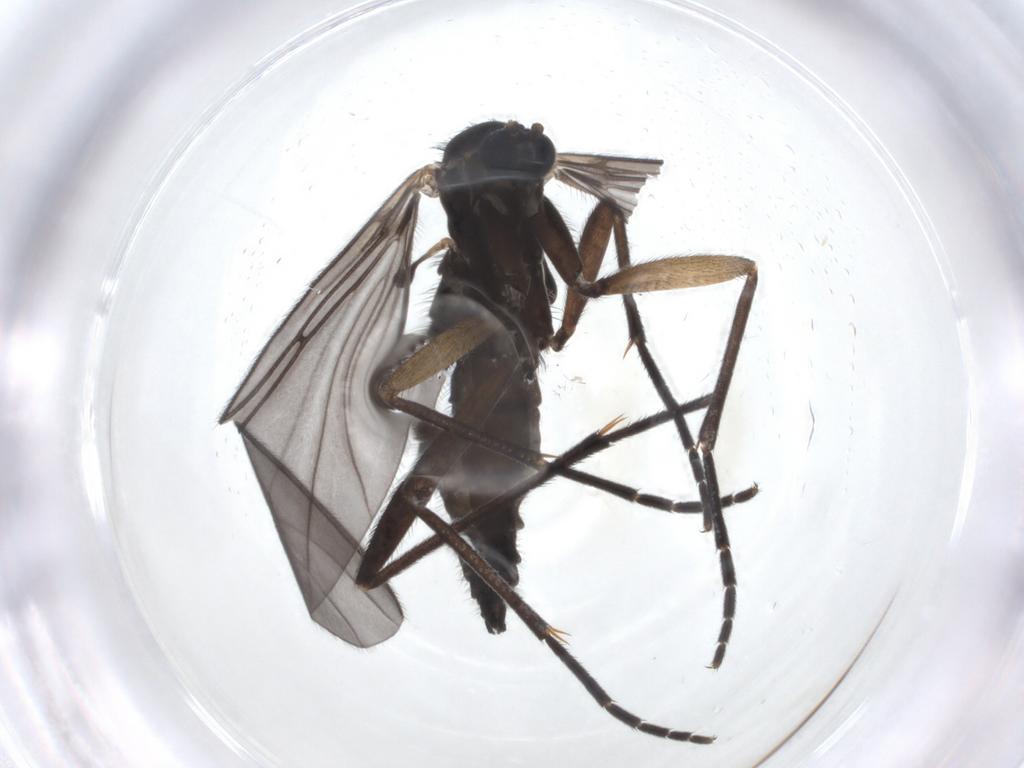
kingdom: Animalia
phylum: Arthropoda
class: Insecta
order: Diptera
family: Sciaridae
